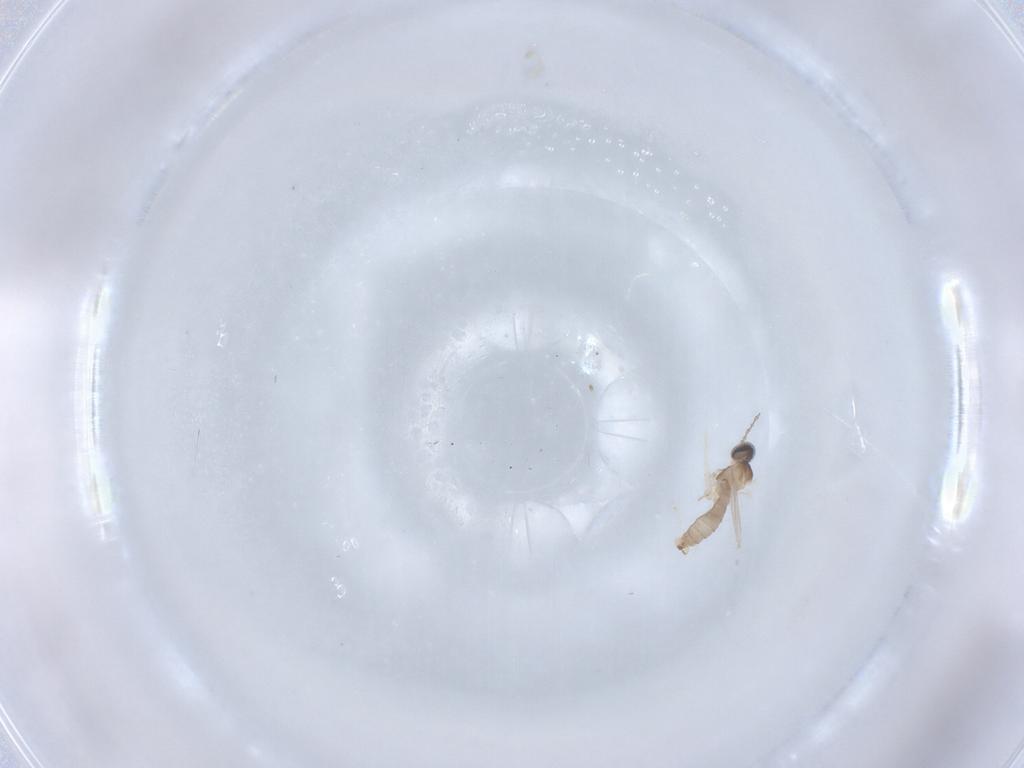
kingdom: Animalia
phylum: Arthropoda
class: Insecta
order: Diptera
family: Cecidomyiidae
